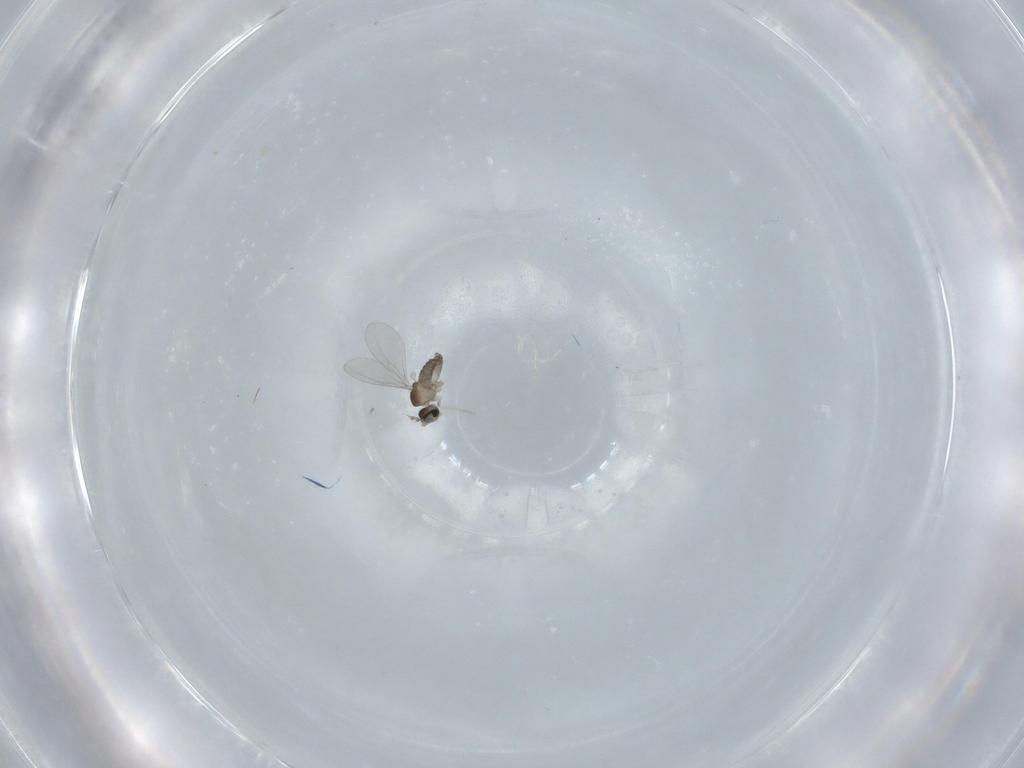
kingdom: Animalia
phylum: Arthropoda
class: Insecta
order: Diptera
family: Cecidomyiidae
